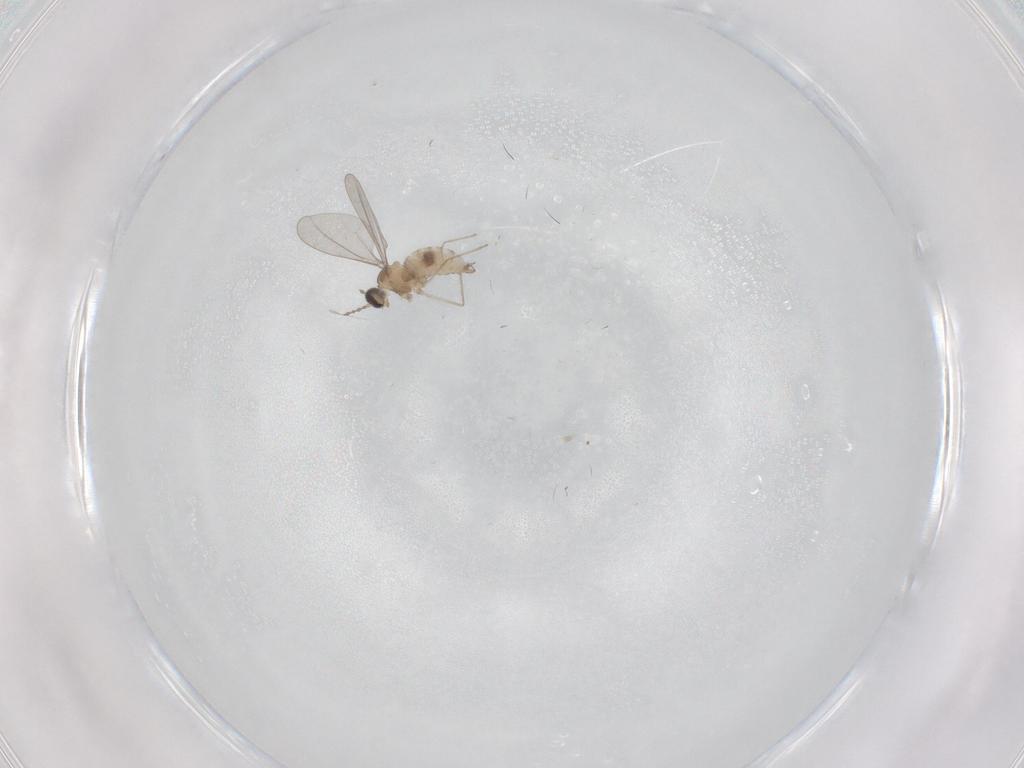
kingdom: Animalia
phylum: Arthropoda
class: Insecta
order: Diptera
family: Cecidomyiidae
